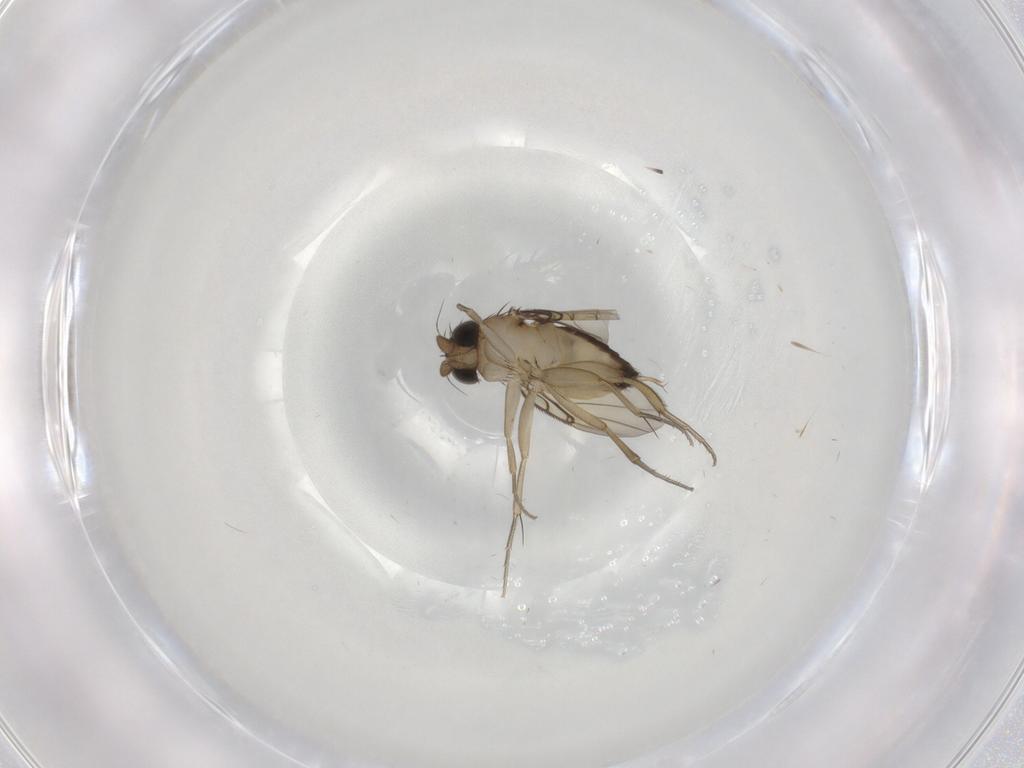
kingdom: Animalia
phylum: Arthropoda
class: Insecta
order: Diptera
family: Phoridae
